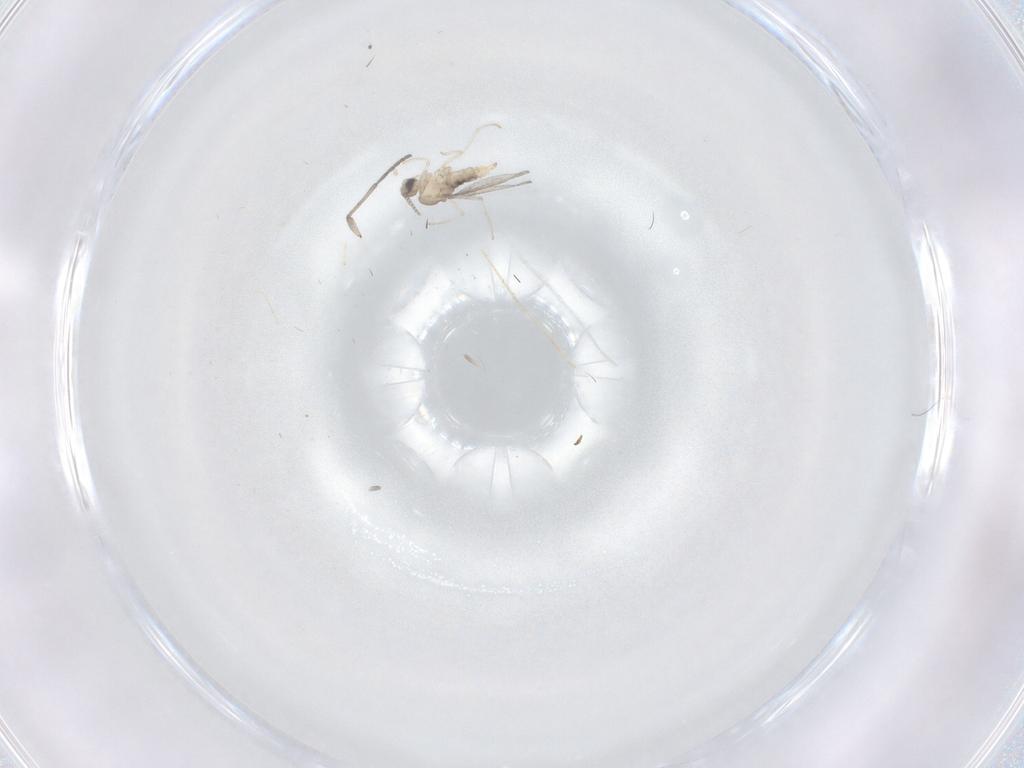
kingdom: Animalia
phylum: Arthropoda
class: Insecta
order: Diptera
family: Sciaridae
